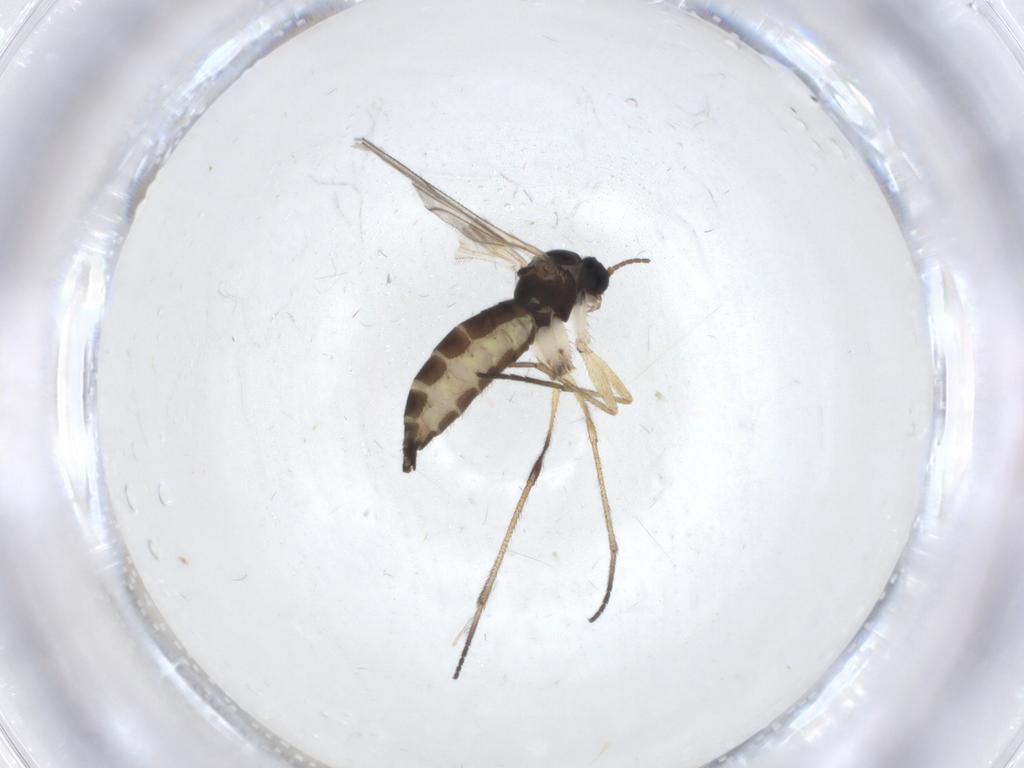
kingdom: Animalia
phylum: Arthropoda
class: Insecta
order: Diptera
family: Sciaridae
